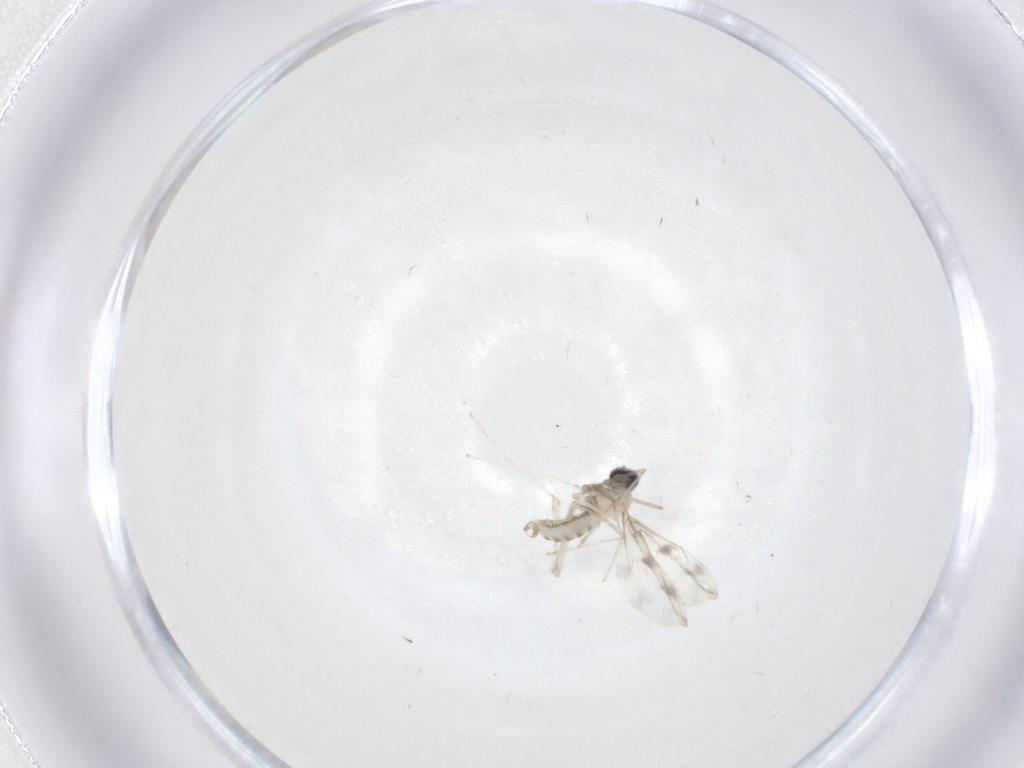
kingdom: Animalia
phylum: Arthropoda
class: Insecta
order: Diptera
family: Cecidomyiidae
